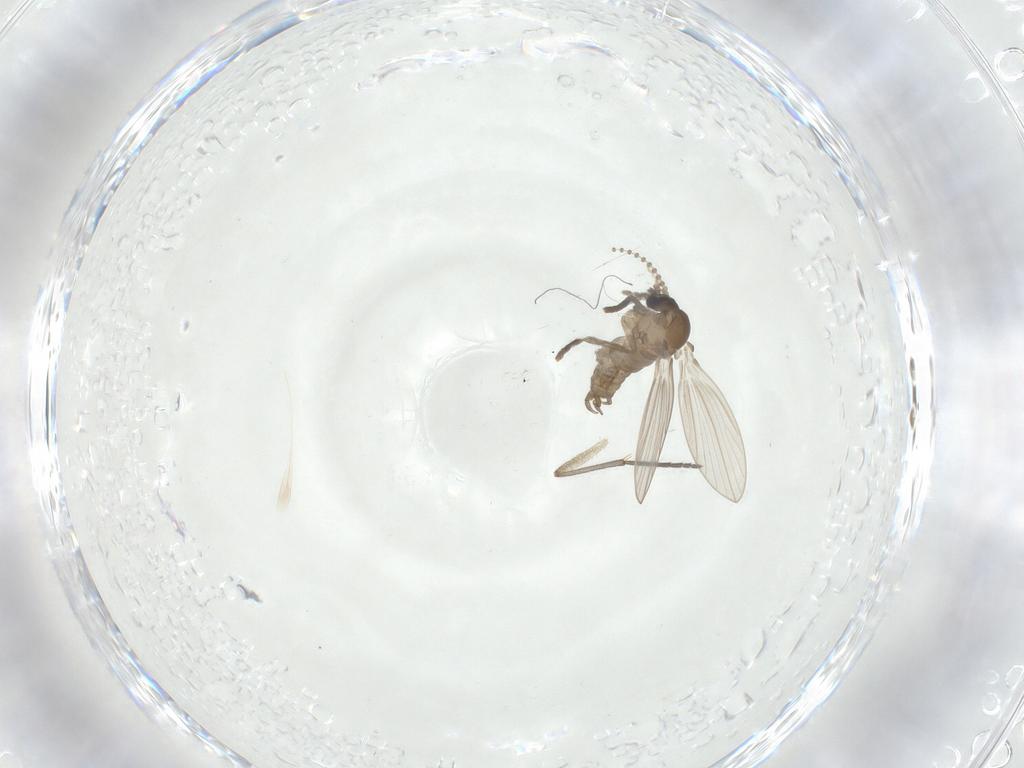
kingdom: Animalia
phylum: Arthropoda
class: Insecta
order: Diptera
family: Psychodidae
